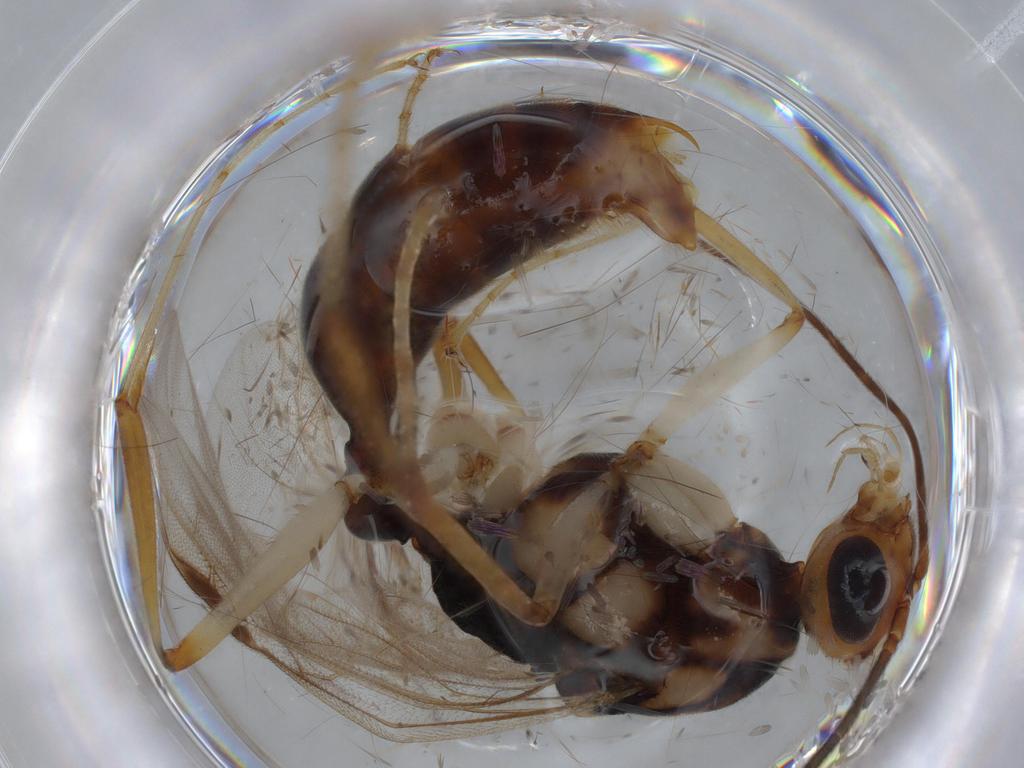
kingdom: Animalia
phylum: Arthropoda
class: Insecta
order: Hymenoptera
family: Formicidae
